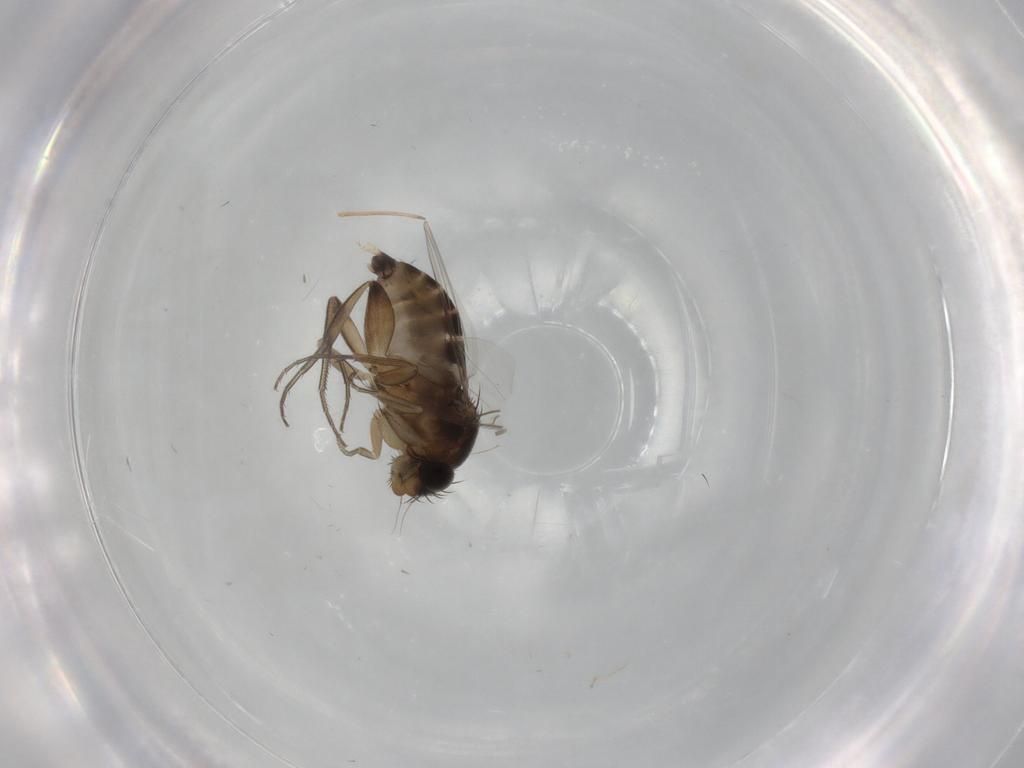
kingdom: Animalia
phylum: Arthropoda
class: Insecta
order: Diptera
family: Phoridae
